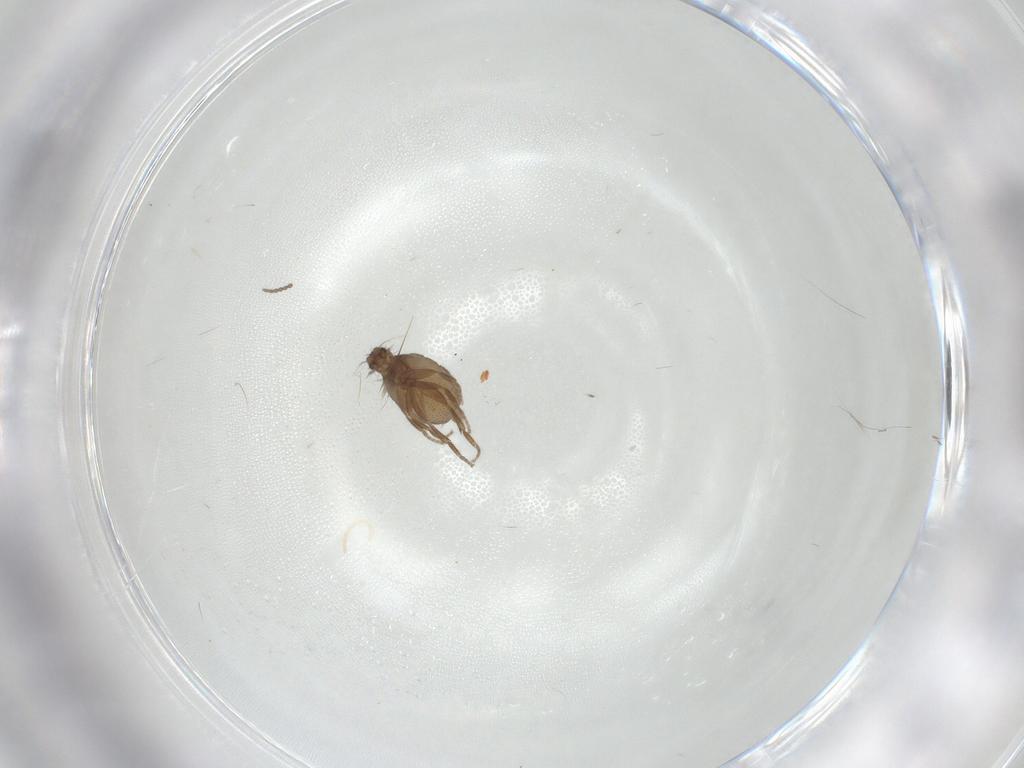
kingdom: Animalia
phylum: Arthropoda
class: Insecta
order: Diptera
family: Phoridae
